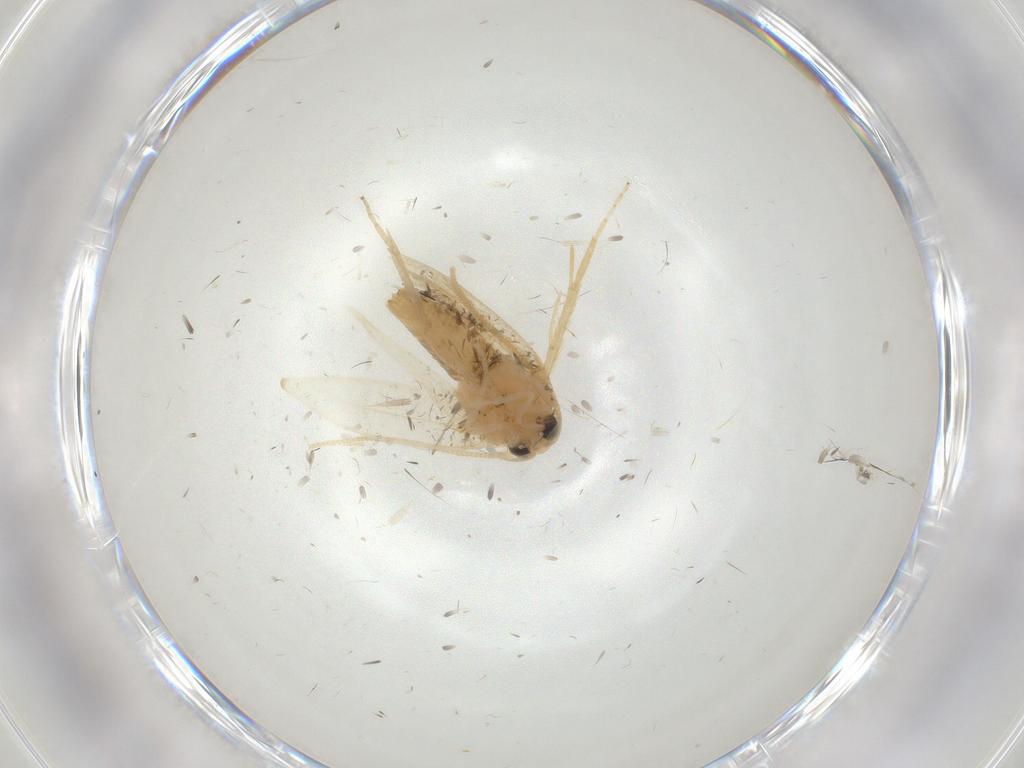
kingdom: Animalia
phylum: Arthropoda
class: Insecta
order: Lepidoptera
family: Opostegidae
